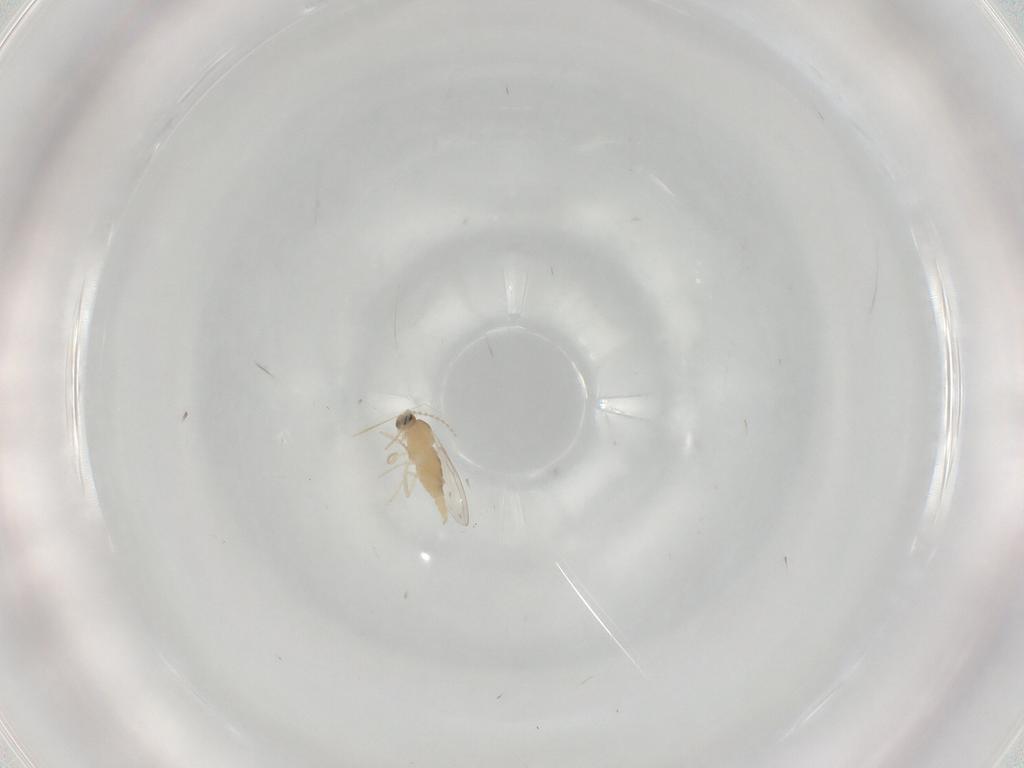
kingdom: Animalia
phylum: Arthropoda
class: Insecta
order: Diptera
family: Cecidomyiidae
